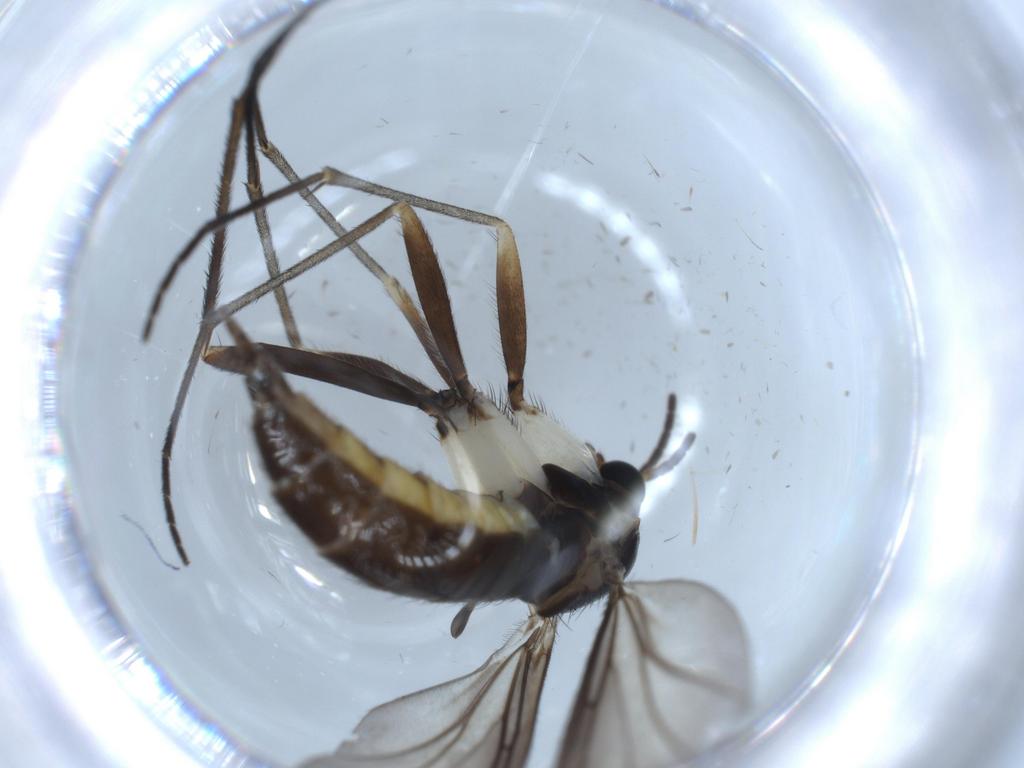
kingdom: Animalia
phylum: Arthropoda
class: Insecta
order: Diptera
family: Sciaridae
